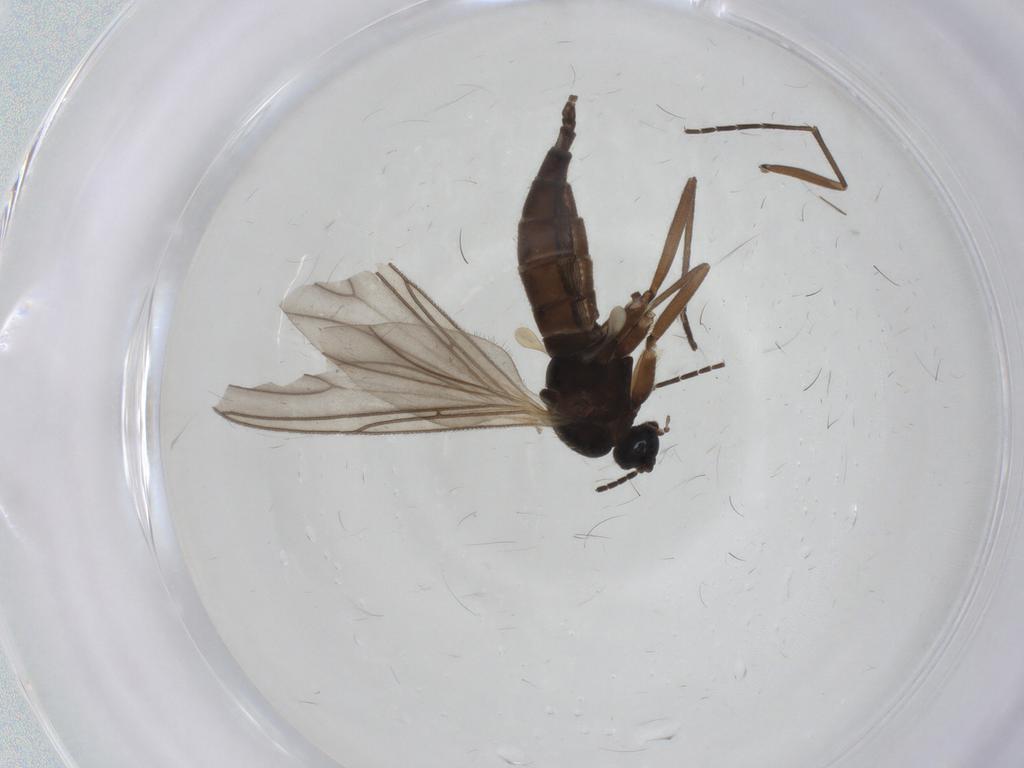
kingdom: Animalia
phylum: Arthropoda
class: Insecta
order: Diptera
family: Sciaridae
